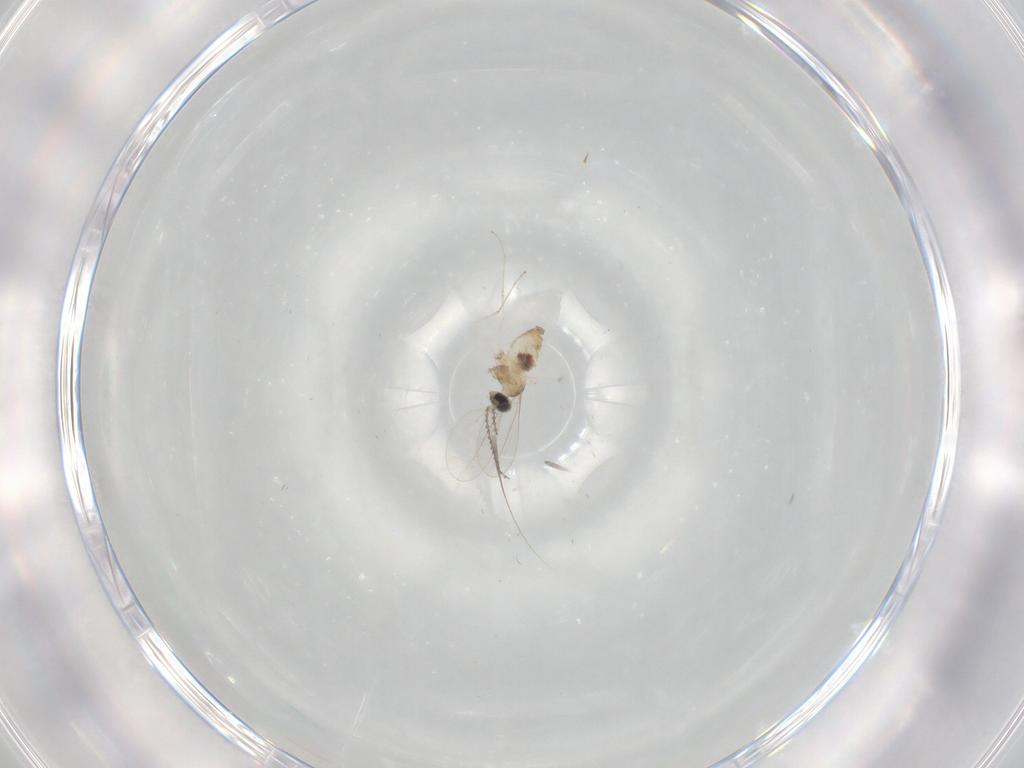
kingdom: Animalia
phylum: Arthropoda
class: Insecta
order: Diptera
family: Cecidomyiidae
